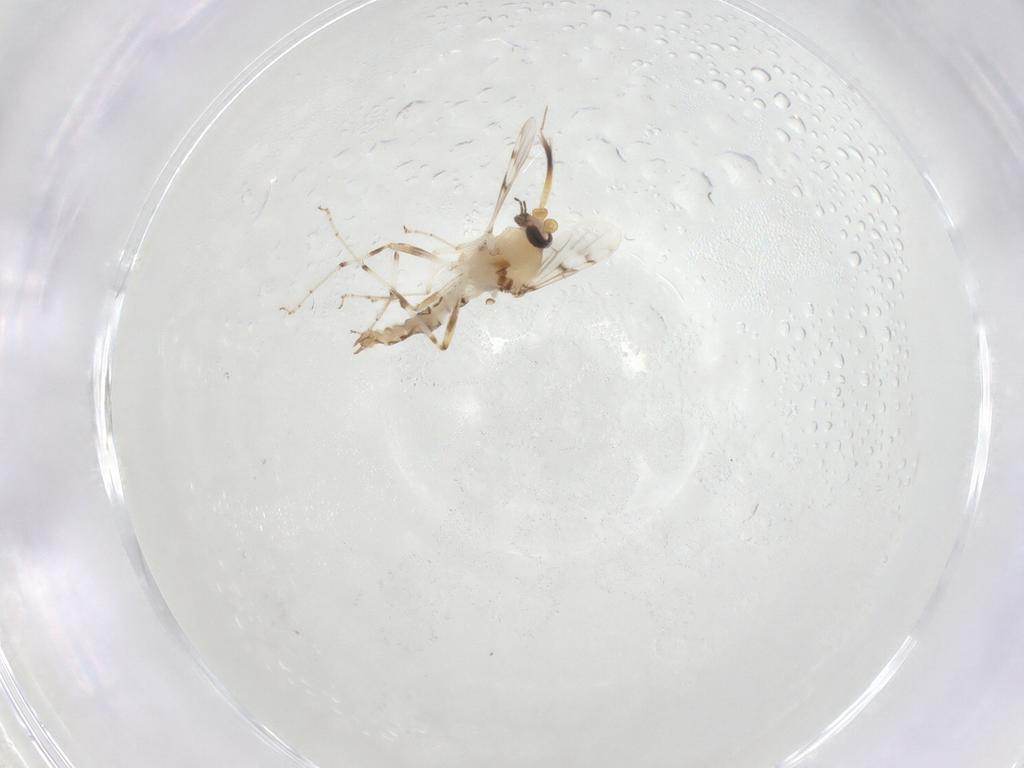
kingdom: Animalia
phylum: Arthropoda
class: Insecta
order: Diptera
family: Ceratopogonidae
